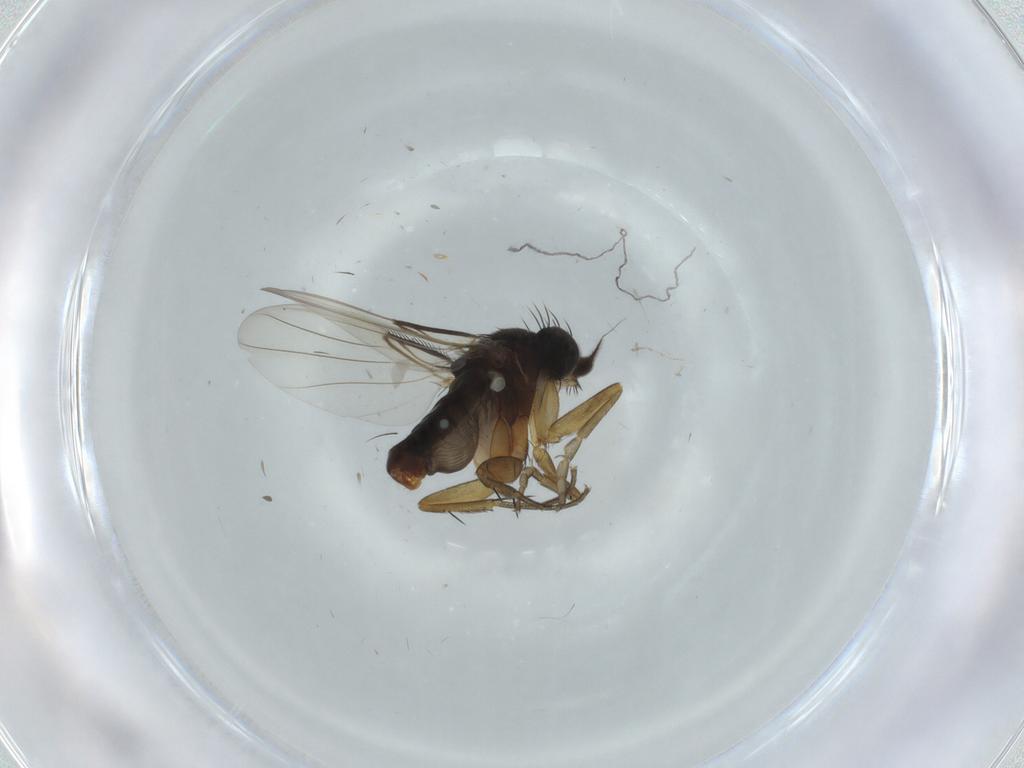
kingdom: Animalia
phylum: Arthropoda
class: Insecta
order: Diptera
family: Phoridae
